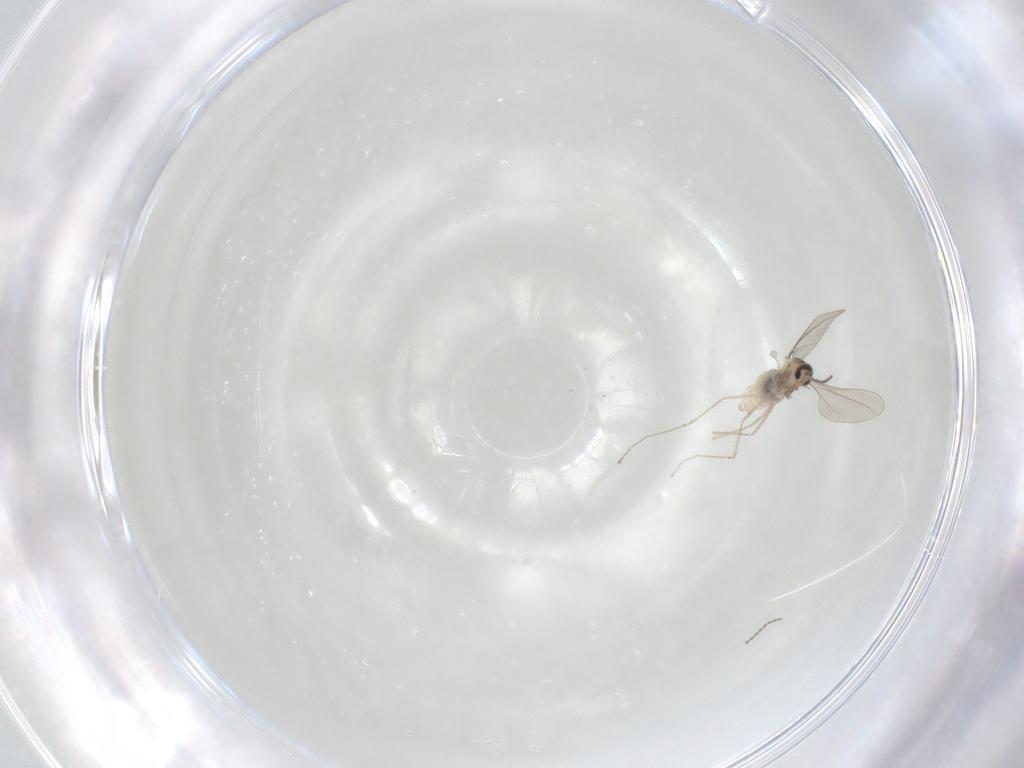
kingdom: Animalia
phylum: Arthropoda
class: Insecta
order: Diptera
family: Cecidomyiidae
